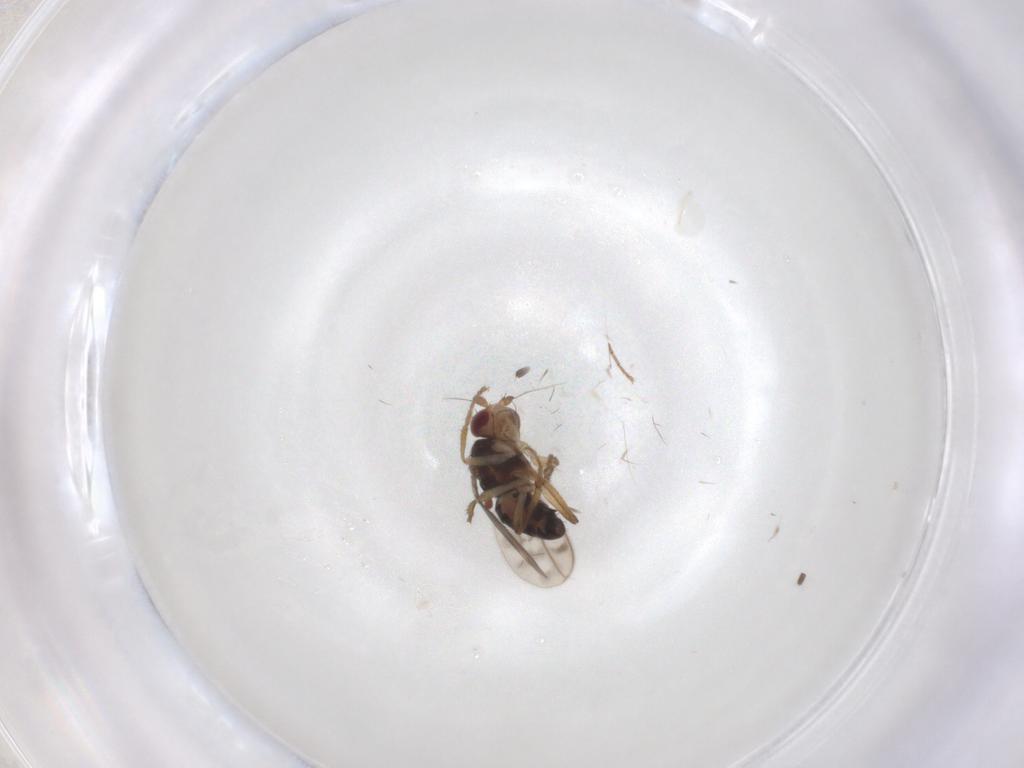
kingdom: Animalia
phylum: Arthropoda
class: Insecta
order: Diptera
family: Sphaeroceridae
